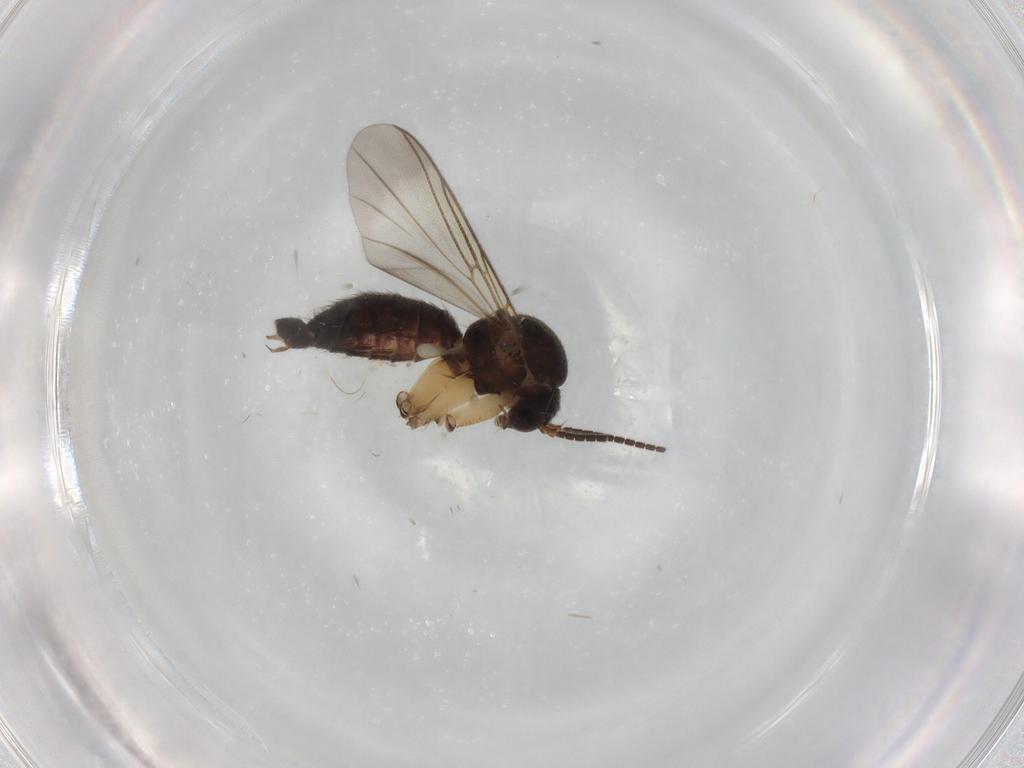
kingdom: Animalia
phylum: Arthropoda
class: Insecta
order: Diptera
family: Mycetophilidae
